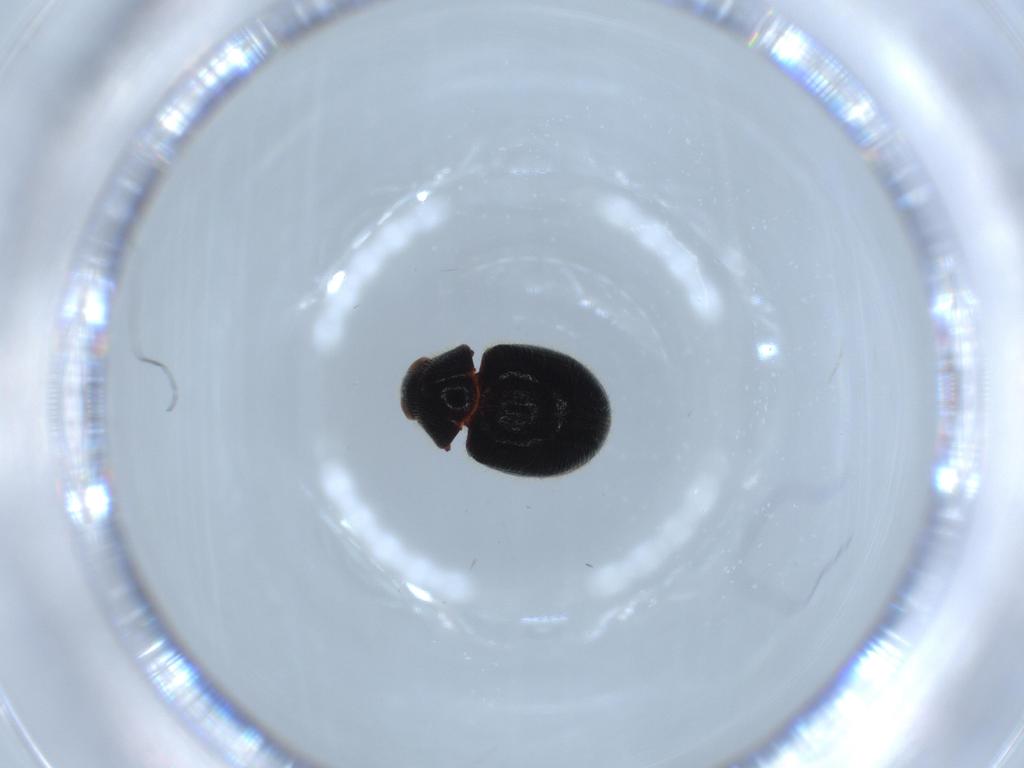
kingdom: Animalia
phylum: Arthropoda
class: Insecta
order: Coleoptera
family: Ptinidae
